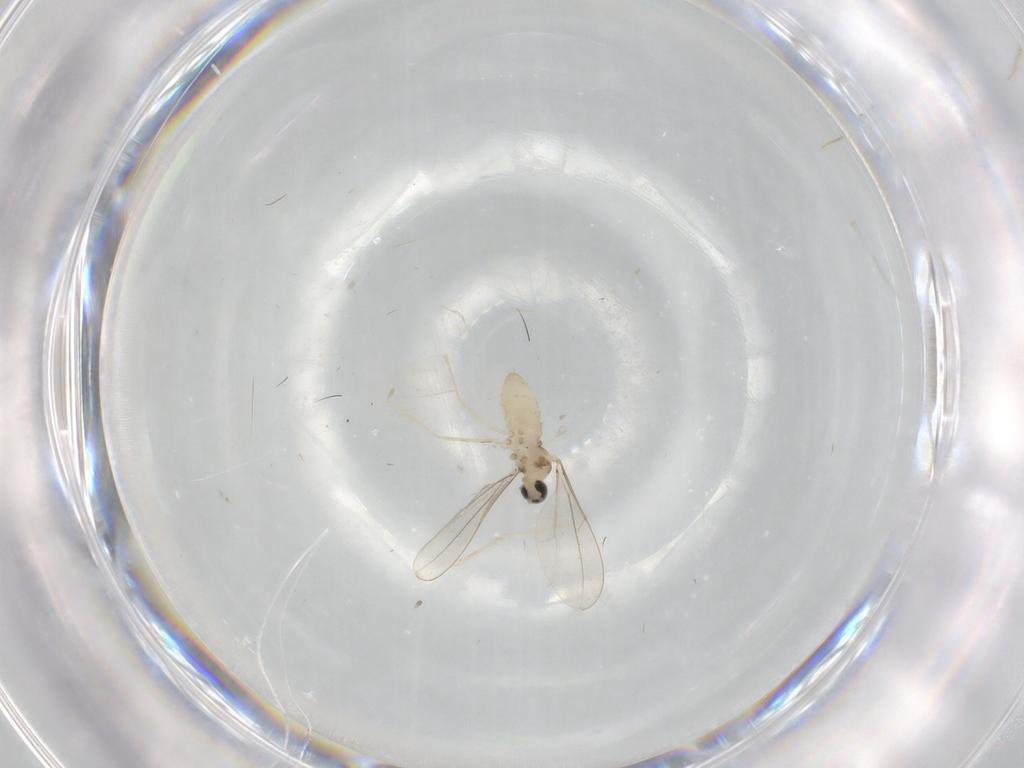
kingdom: Animalia
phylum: Arthropoda
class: Insecta
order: Diptera
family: Cecidomyiidae
